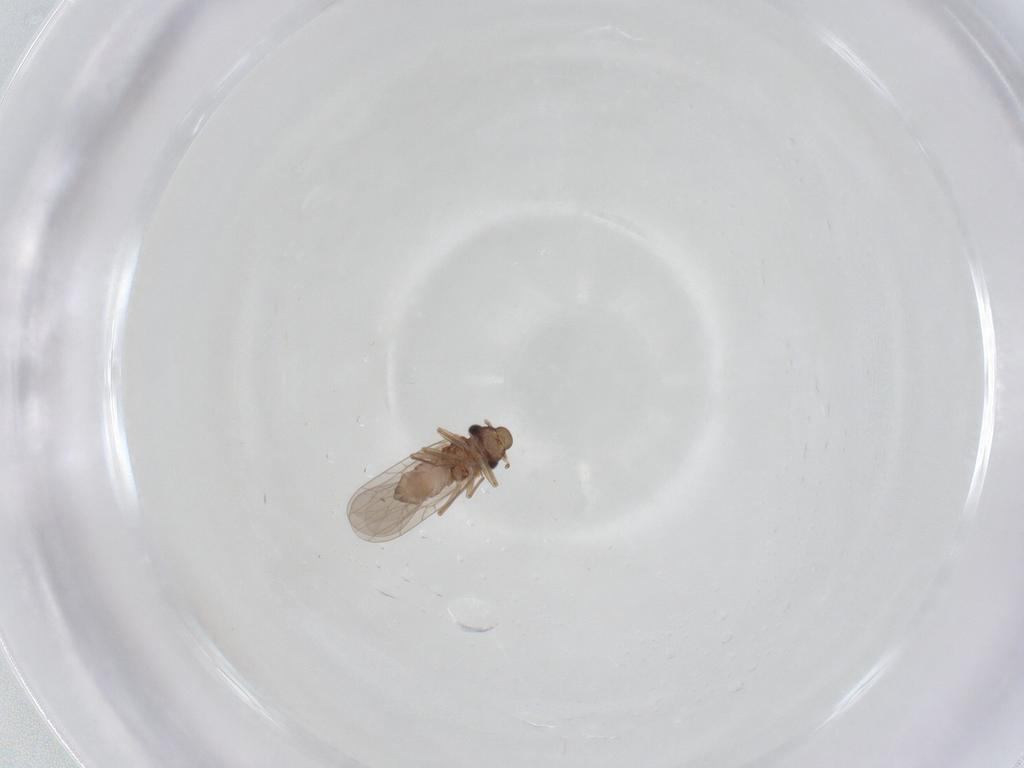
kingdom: Animalia
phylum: Arthropoda
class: Insecta
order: Psocodea
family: Lepidopsocidae
